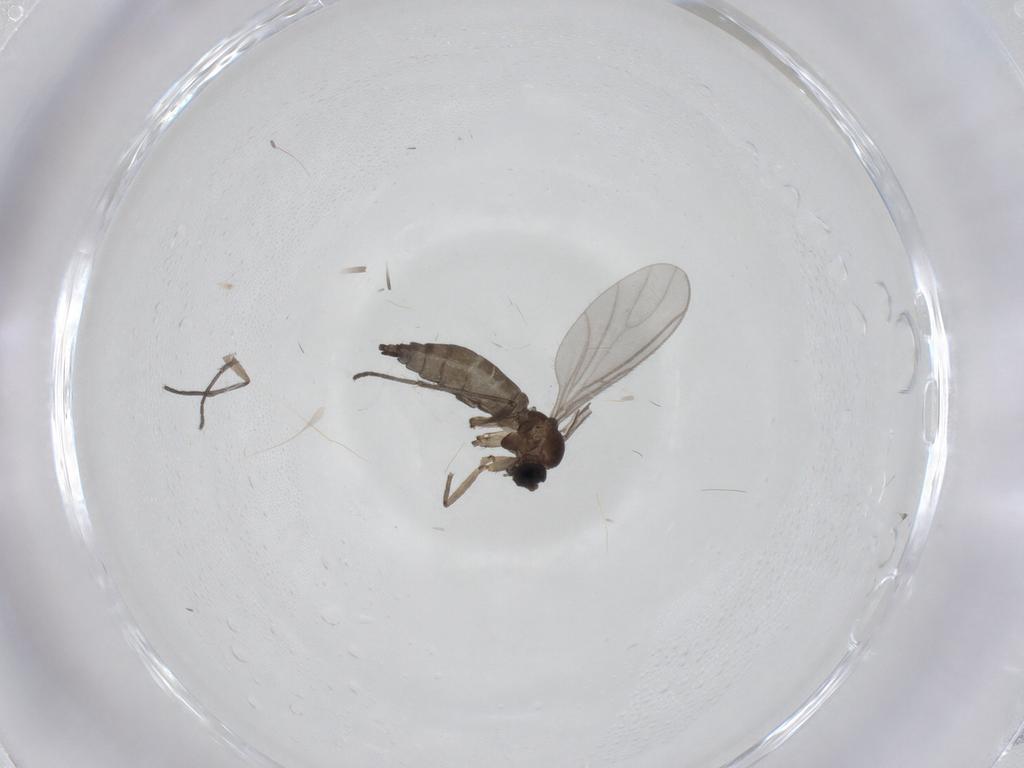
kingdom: Animalia
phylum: Arthropoda
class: Insecta
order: Diptera
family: Sciaridae
